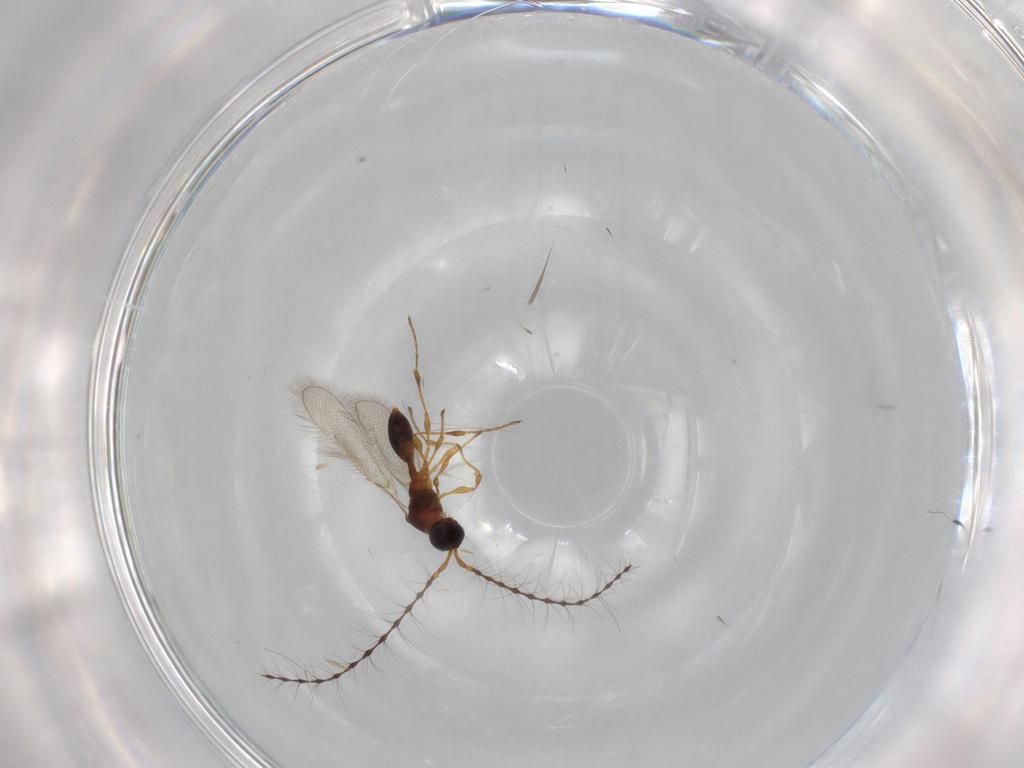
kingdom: Animalia
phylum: Arthropoda
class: Insecta
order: Hymenoptera
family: Diapriidae
